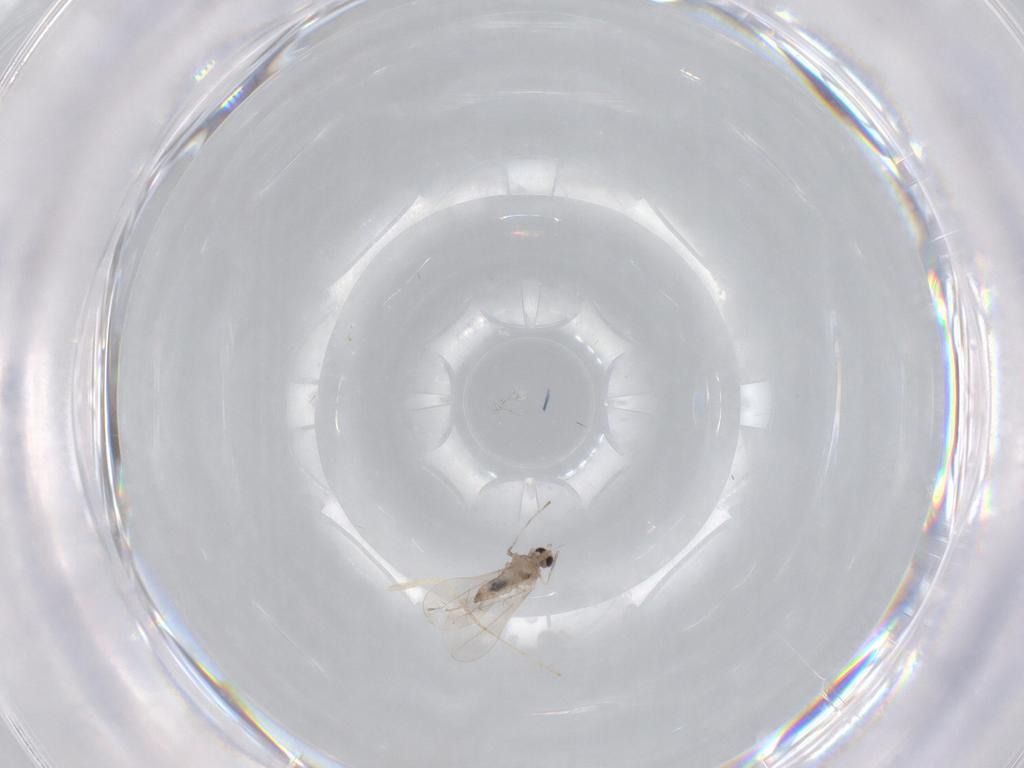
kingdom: Animalia
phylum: Arthropoda
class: Insecta
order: Diptera
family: Cecidomyiidae
